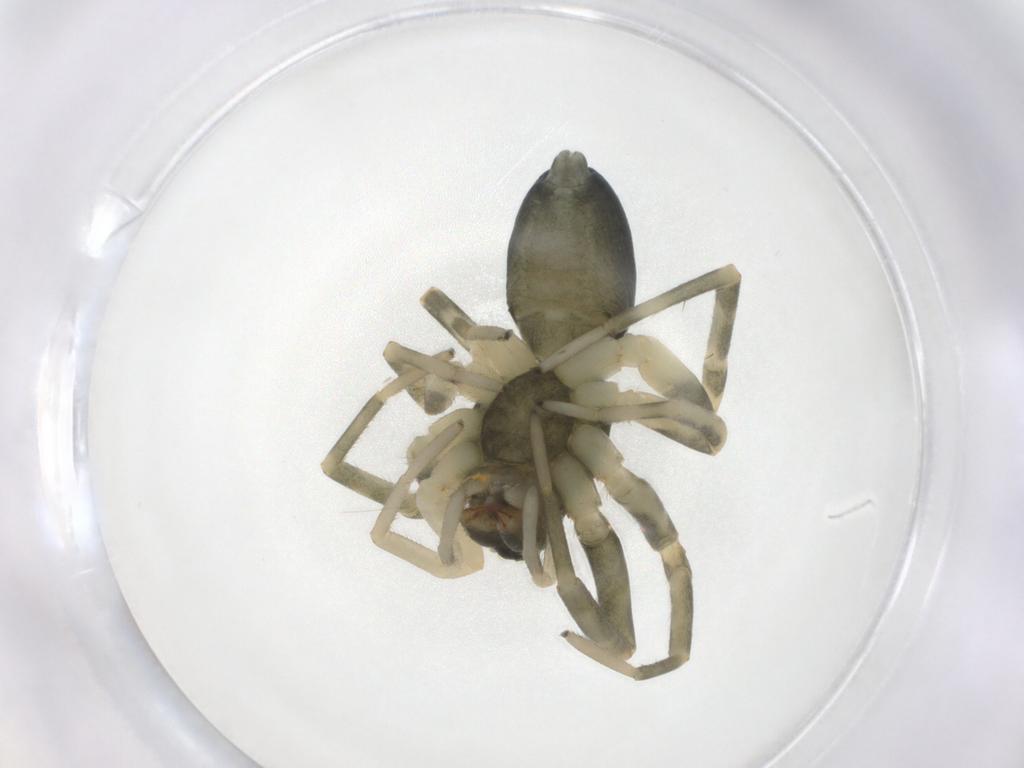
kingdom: Animalia
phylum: Arthropoda
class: Arachnida
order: Araneae
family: Trachelidae
